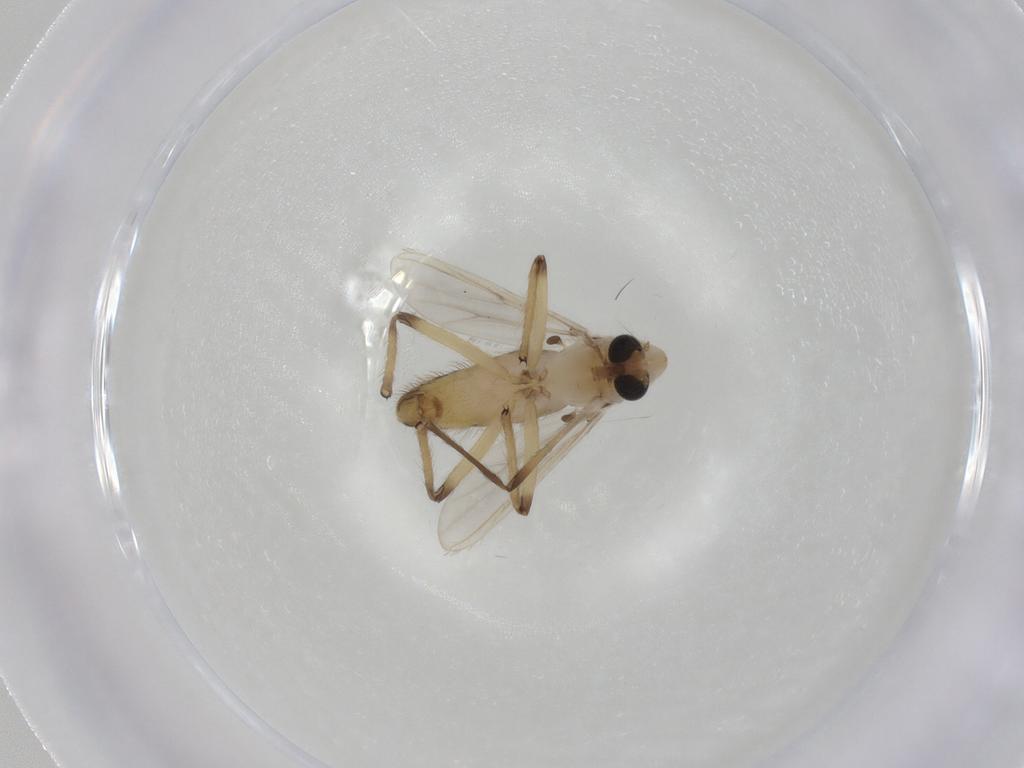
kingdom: Animalia
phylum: Arthropoda
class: Insecta
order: Diptera
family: Chironomidae
